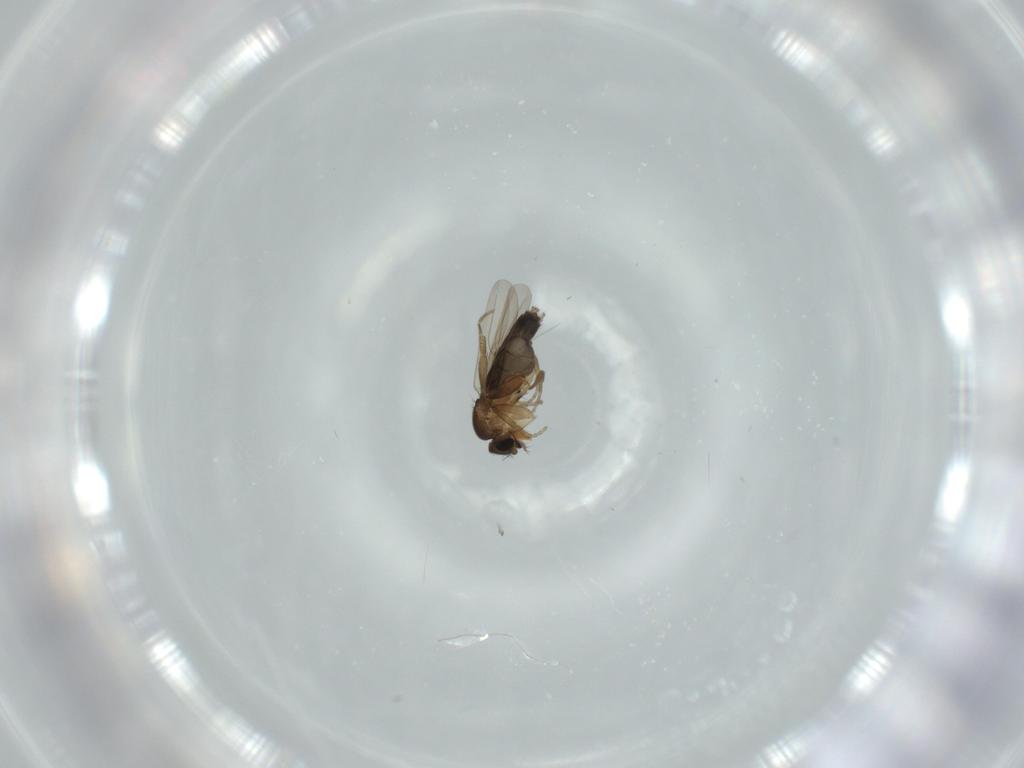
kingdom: Animalia
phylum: Arthropoda
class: Insecta
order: Diptera
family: Phoridae
